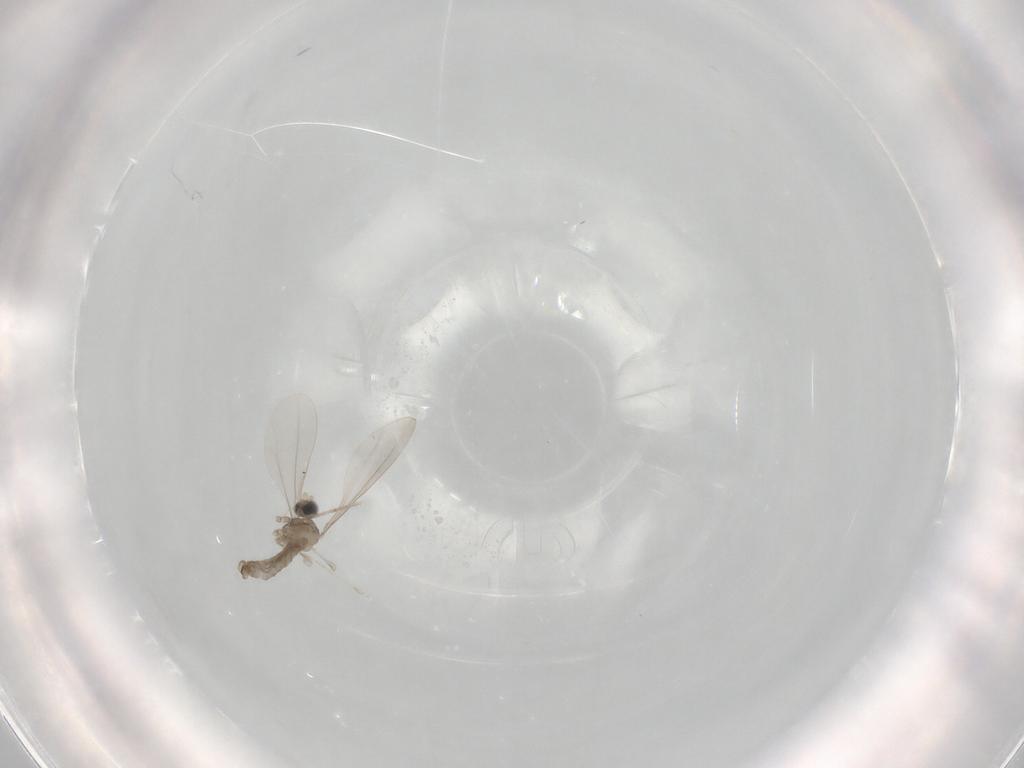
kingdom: Animalia
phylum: Arthropoda
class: Insecta
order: Diptera
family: Cecidomyiidae
